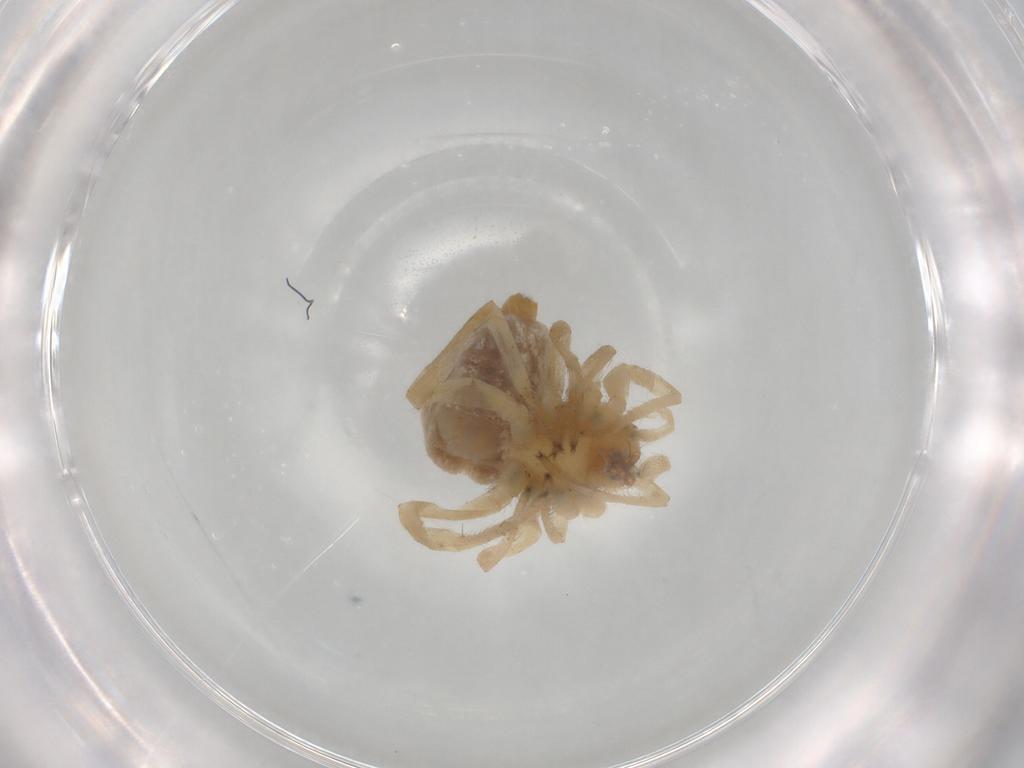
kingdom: Animalia
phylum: Arthropoda
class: Arachnida
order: Araneae
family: Cheiracanthiidae
